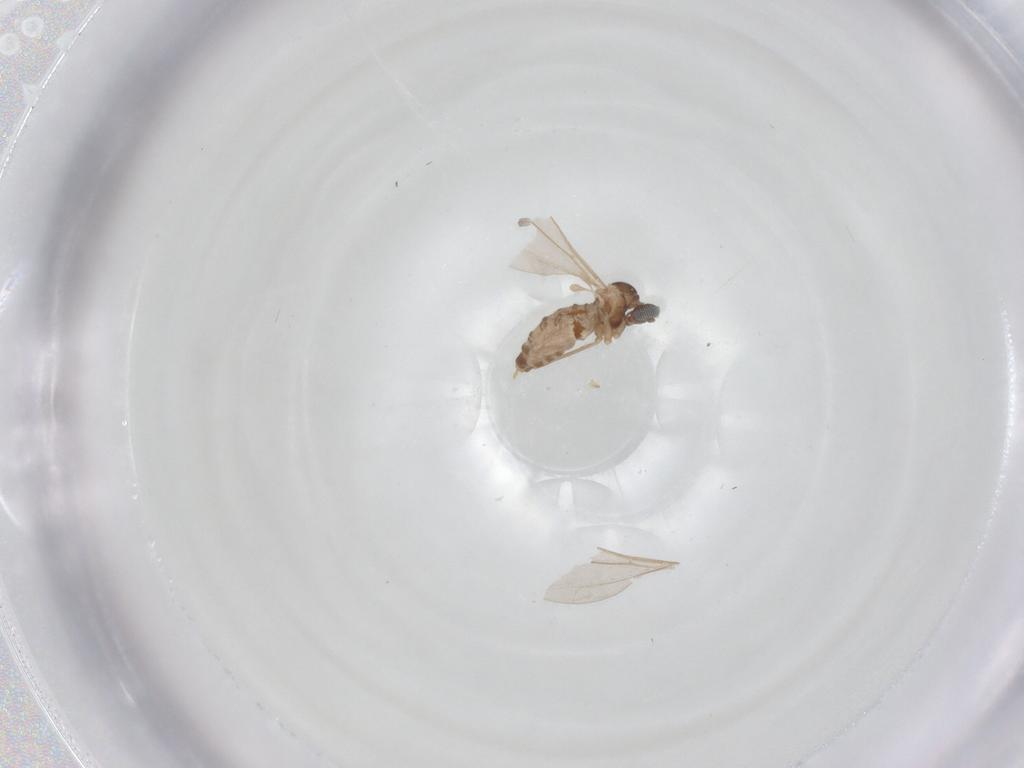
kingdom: Animalia
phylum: Arthropoda
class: Insecta
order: Diptera
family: Cecidomyiidae
